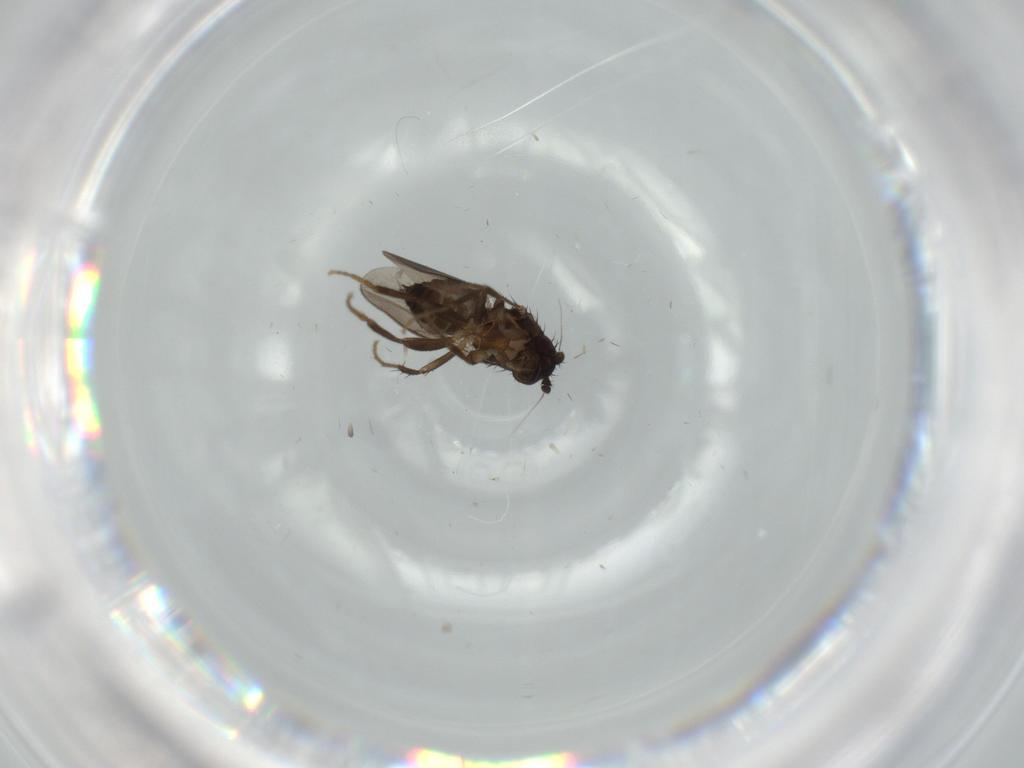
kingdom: Animalia
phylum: Arthropoda
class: Insecta
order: Diptera
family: Sphaeroceridae
